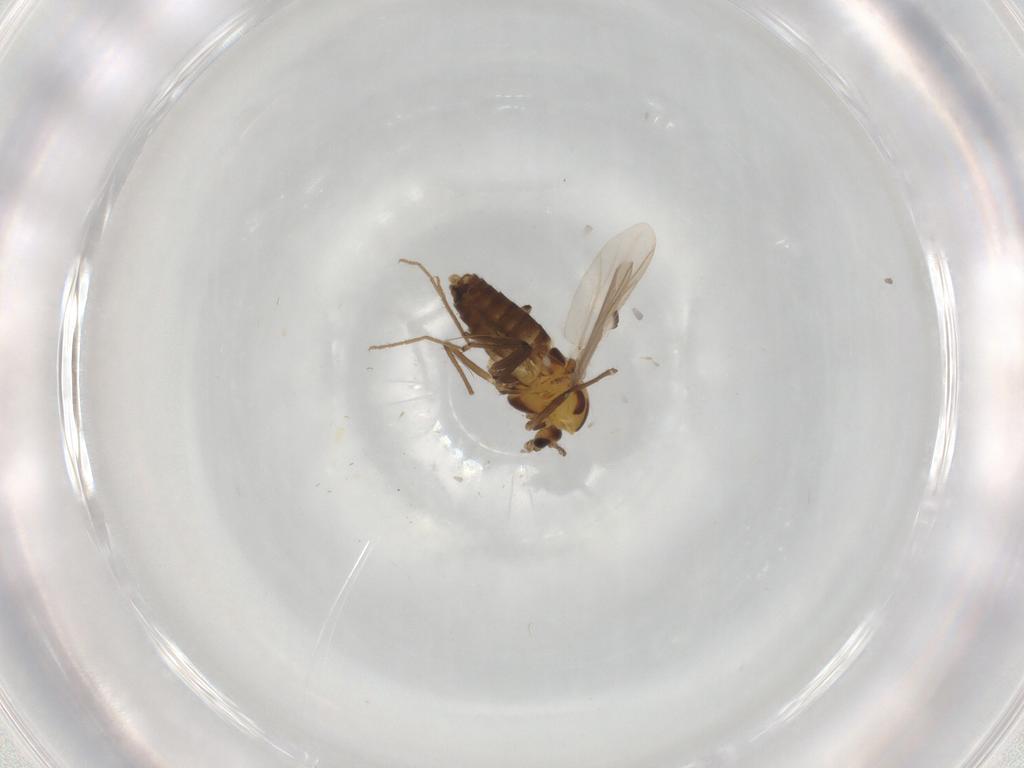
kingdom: Animalia
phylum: Arthropoda
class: Insecta
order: Diptera
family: Chironomidae
